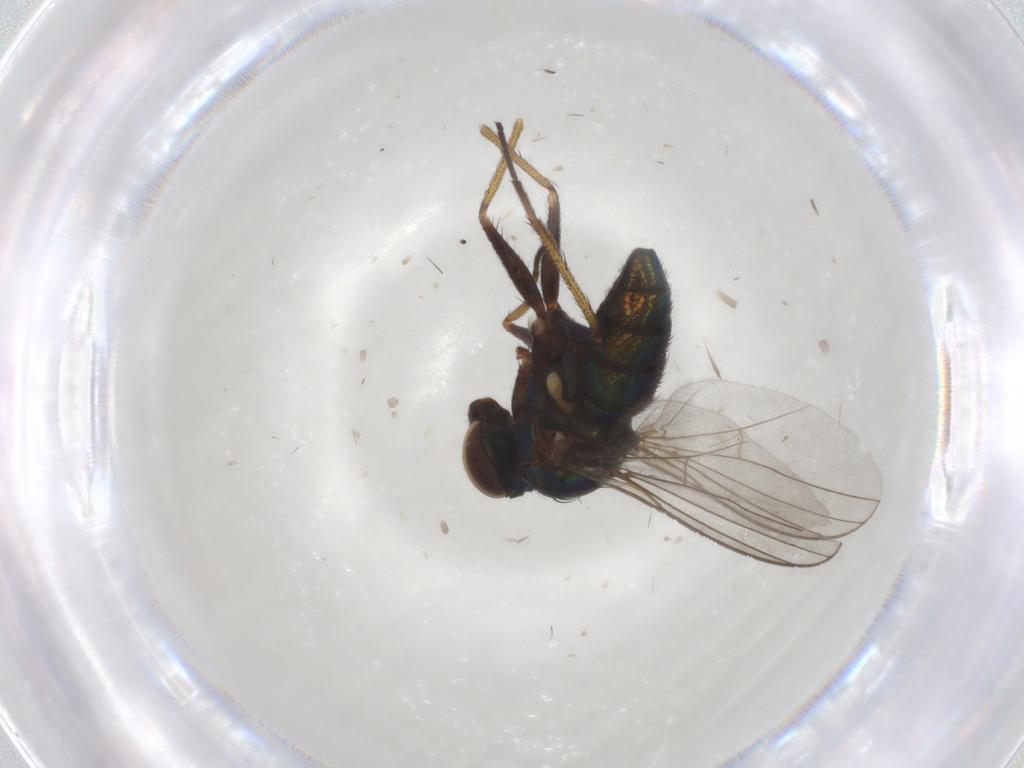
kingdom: Animalia
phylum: Arthropoda
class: Insecta
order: Diptera
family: Dolichopodidae
